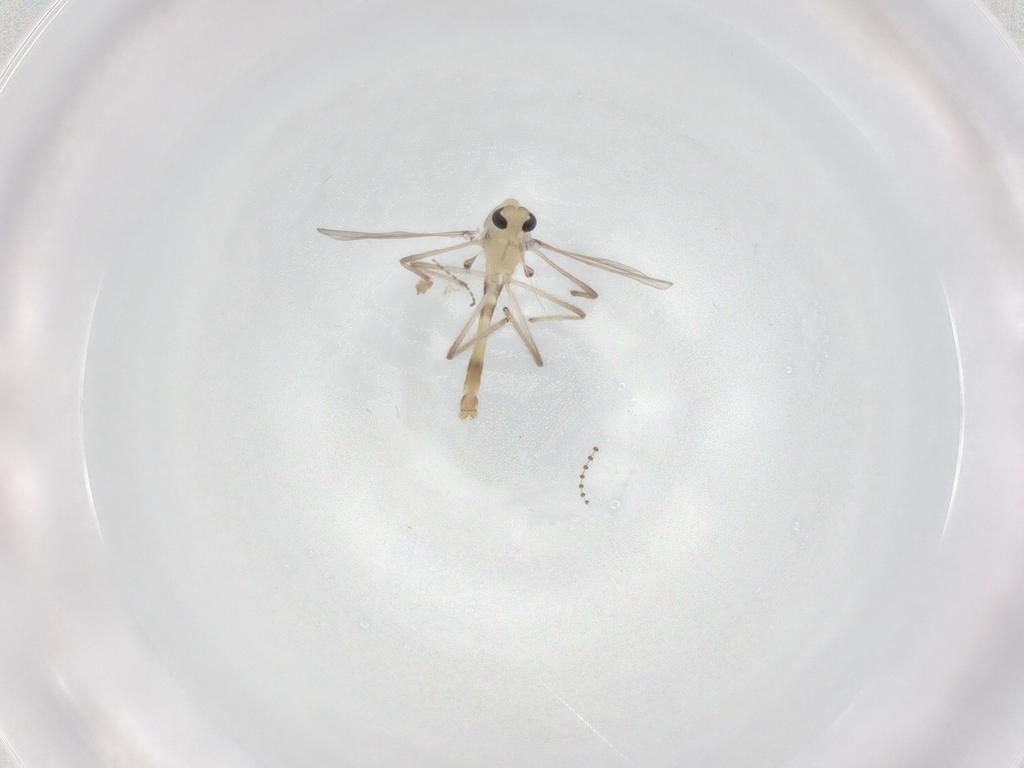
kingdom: Animalia
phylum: Arthropoda
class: Insecta
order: Diptera
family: Chironomidae
